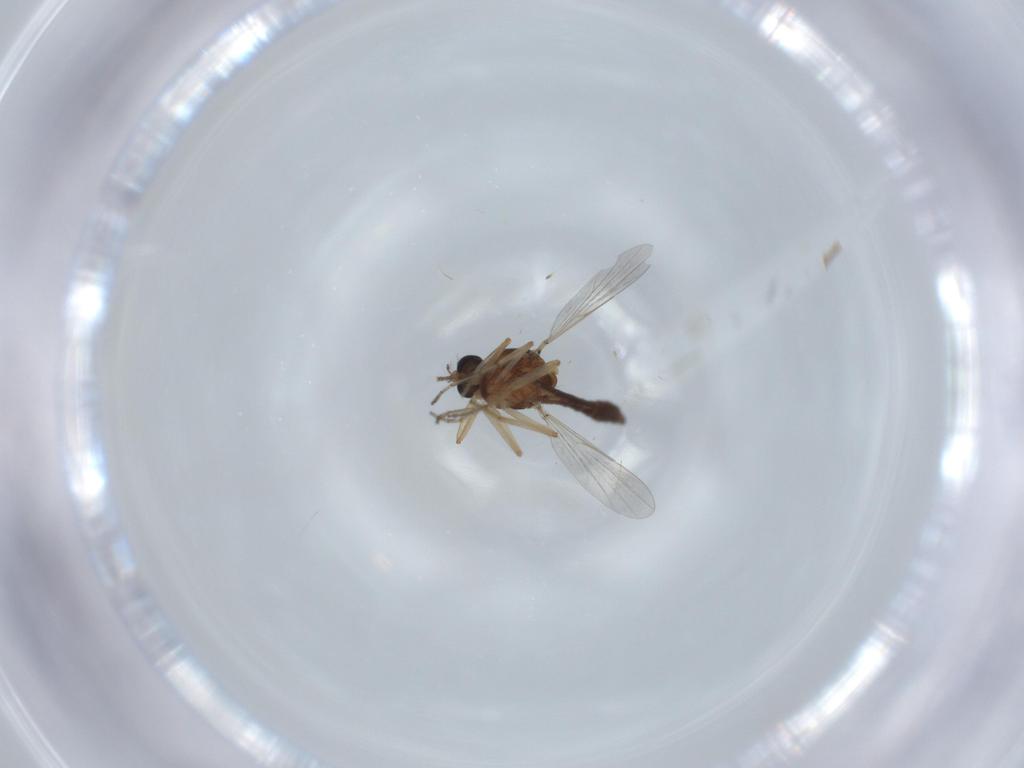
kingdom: Animalia
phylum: Arthropoda
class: Insecta
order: Diptera
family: Ceratopogonidae
